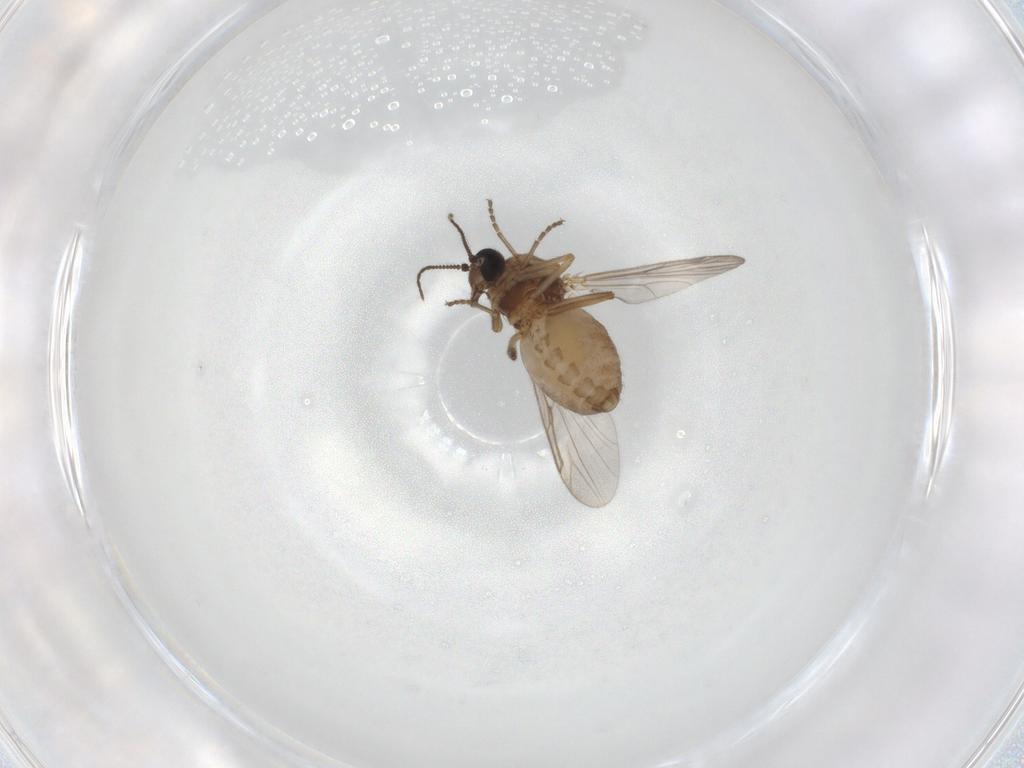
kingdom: Animalia
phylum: Arthropoda
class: Insecta
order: Diptera
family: Ceratopogonidae
